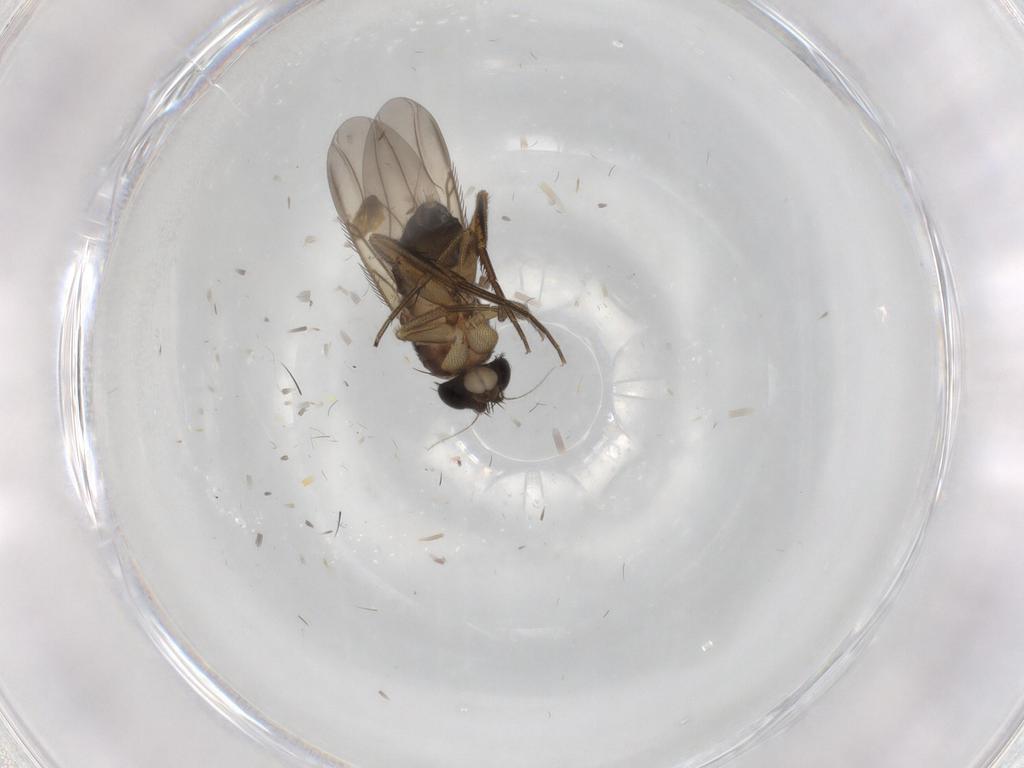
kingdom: Animalia
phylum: Arthropoda
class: Insecta
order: Diptera
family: Phoridae
